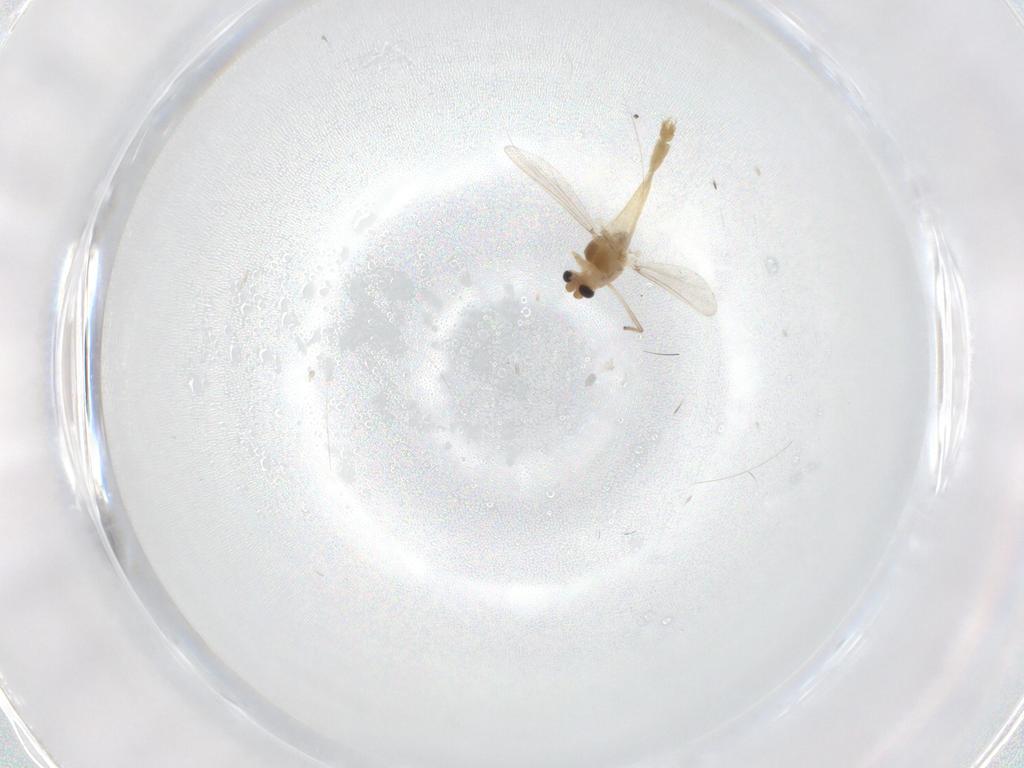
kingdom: Animalia
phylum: Arthropoda
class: Insecta
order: Diptera
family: Chironomidae
